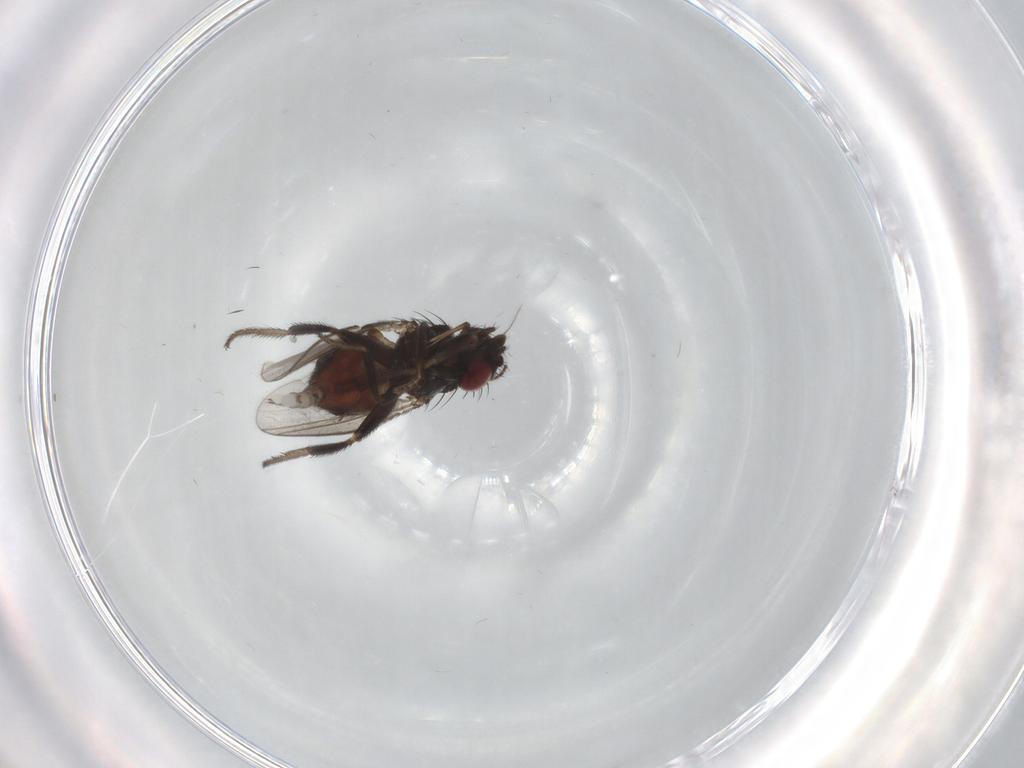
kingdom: Animalia
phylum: Arthropoda
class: Insecta
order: Diptera
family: Milichiidae
